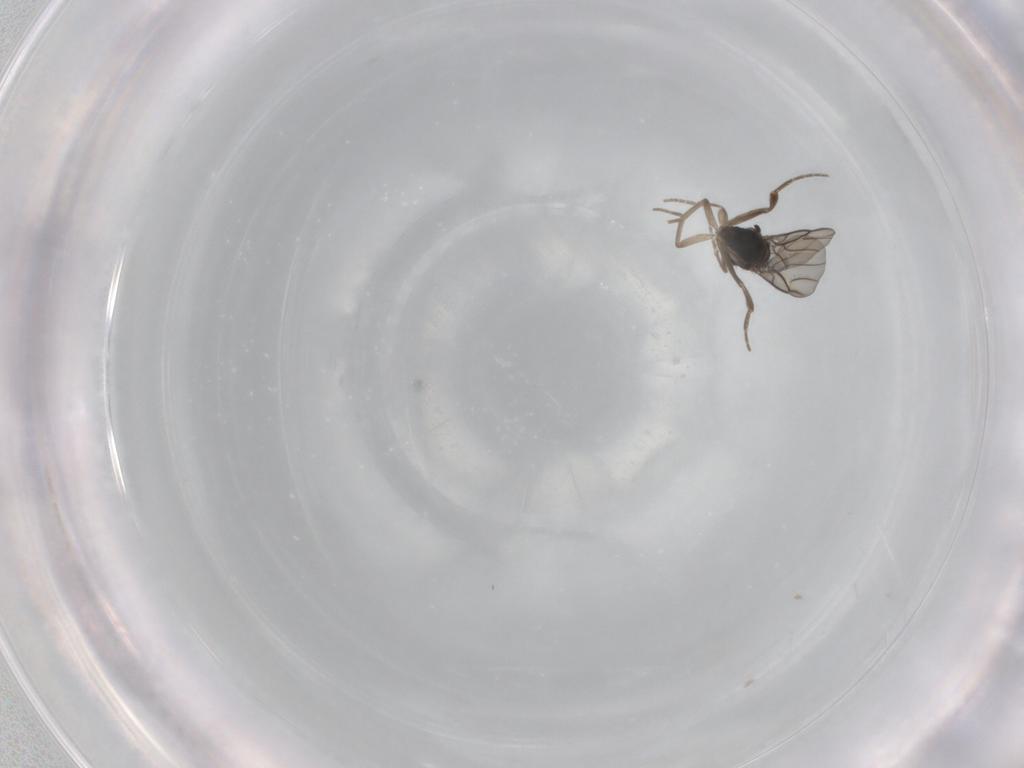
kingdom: Animalia
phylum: Arthropoda
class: Insecta
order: Diptera
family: Phoridae
